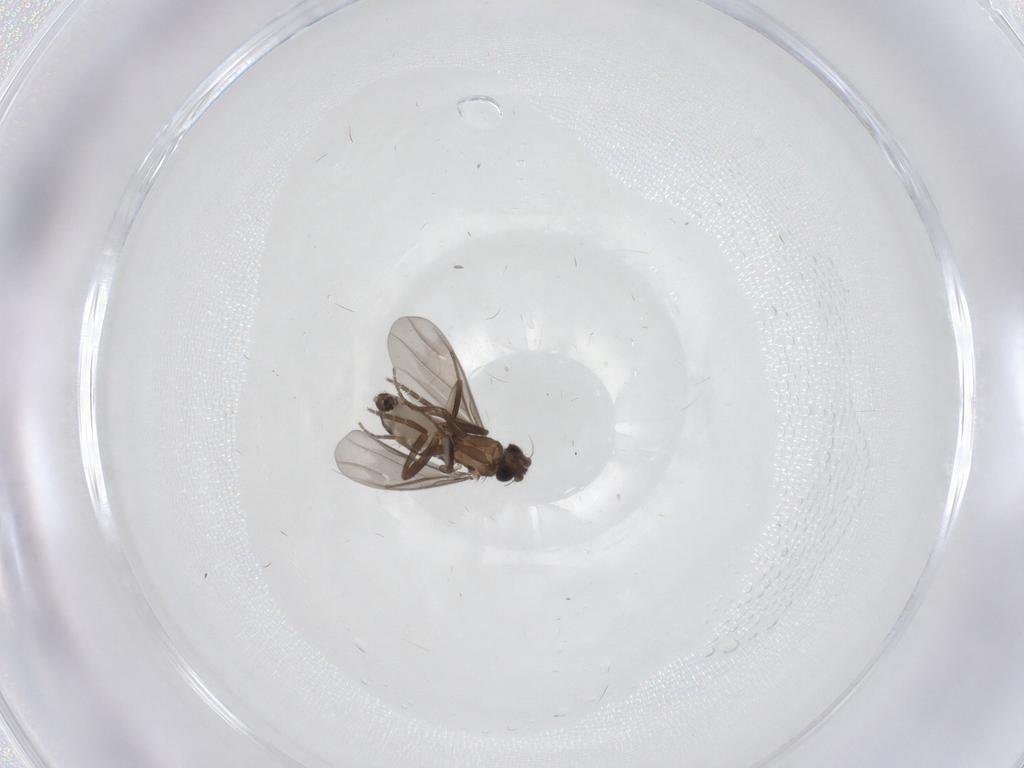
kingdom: Animalia
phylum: Arthropoda
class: Insecta
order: Diptera
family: Phoridae
